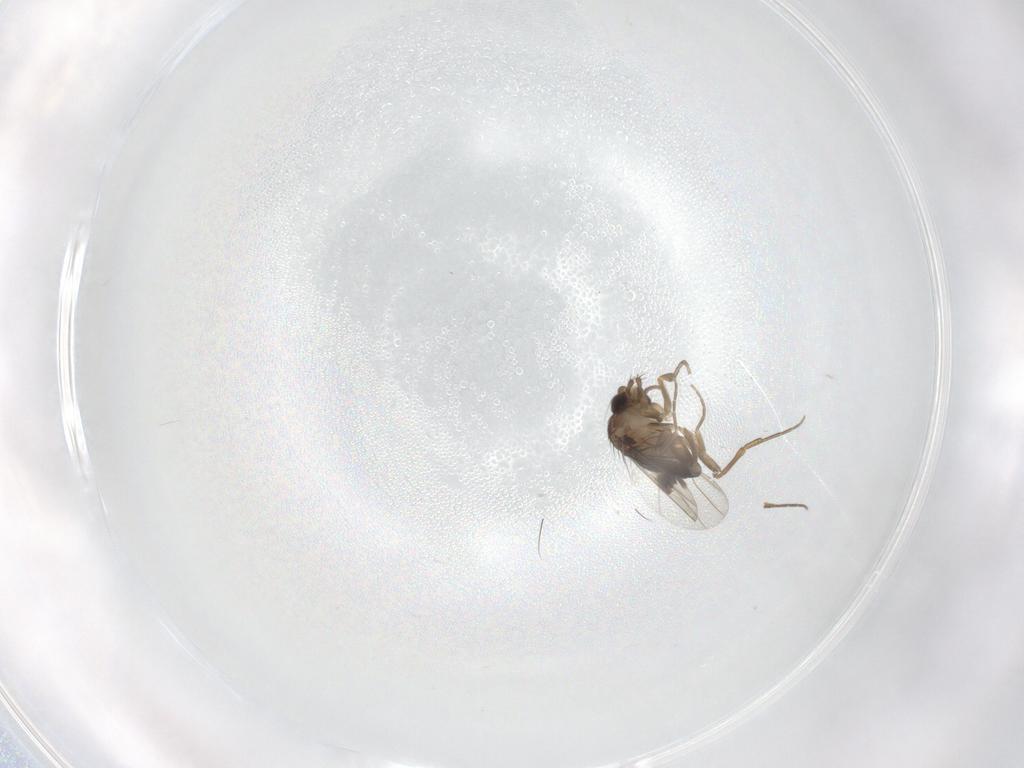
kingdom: Animalia
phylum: Arthropoda
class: Insecta
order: Diptera
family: Phoridae
